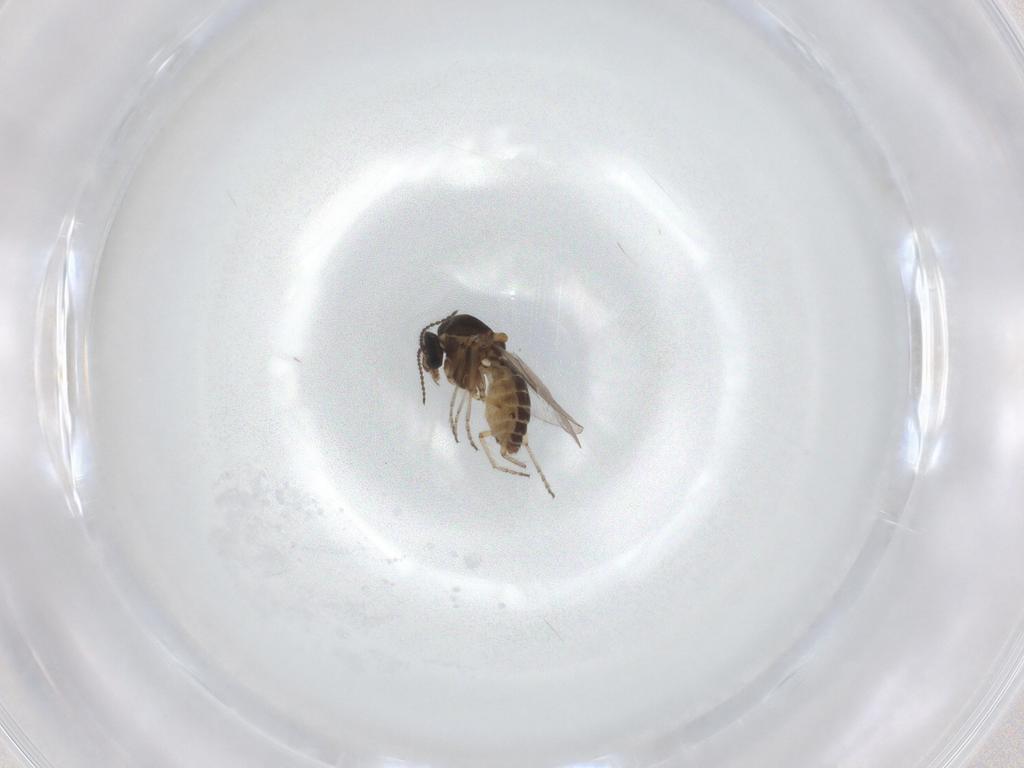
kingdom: Animalia
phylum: Arthropoda
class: Insecta
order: Diptera
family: Ceratopogonidae
